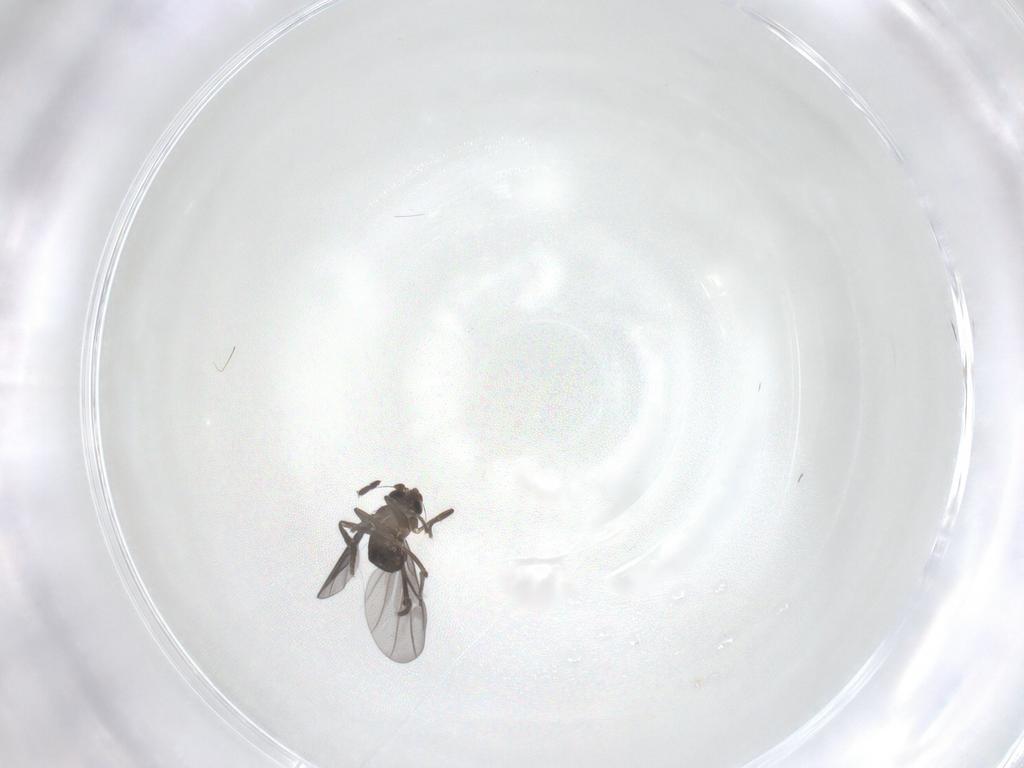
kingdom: Animalia
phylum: Arthropoda
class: Insecta
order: Diptera
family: Phoridae
